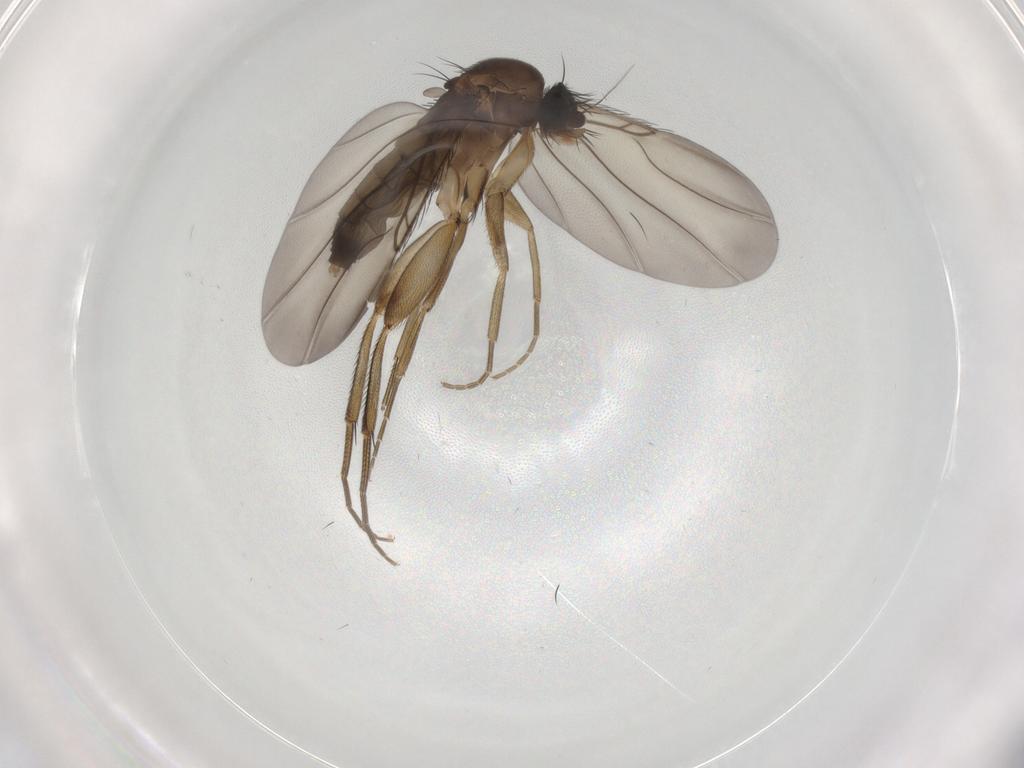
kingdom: Animalia
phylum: Arthropoda
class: Insecta
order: Diptera
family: Phoridae
